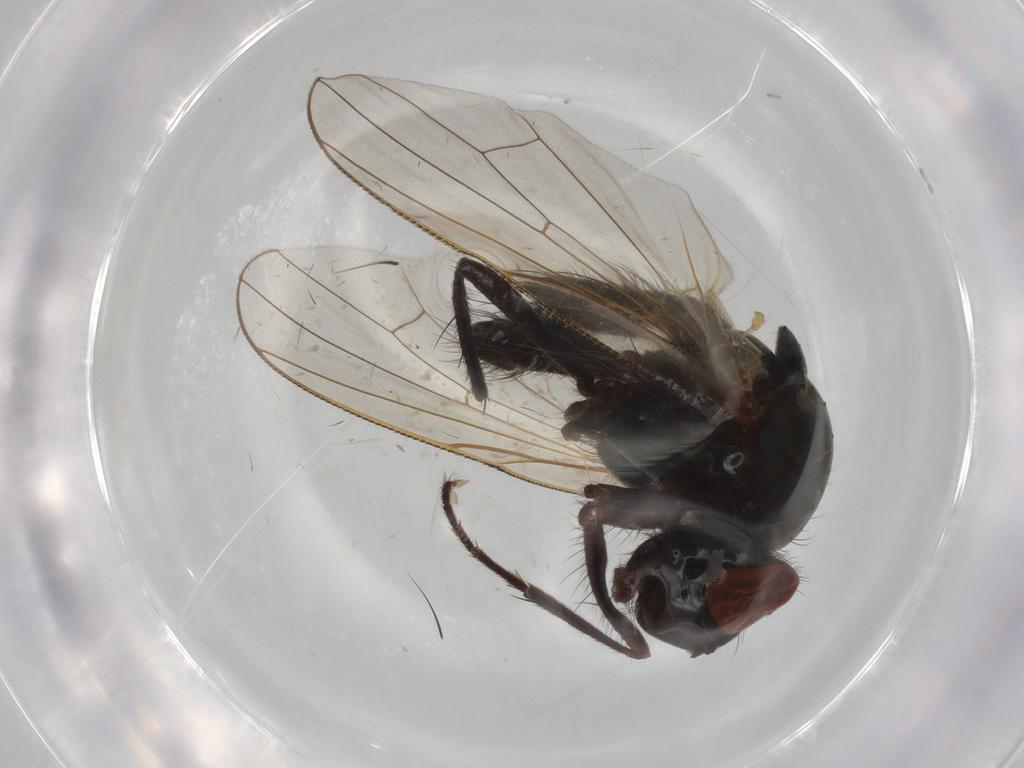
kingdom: Animalia
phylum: Arthropoda
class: Insecta
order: Diptera
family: Phoridae
